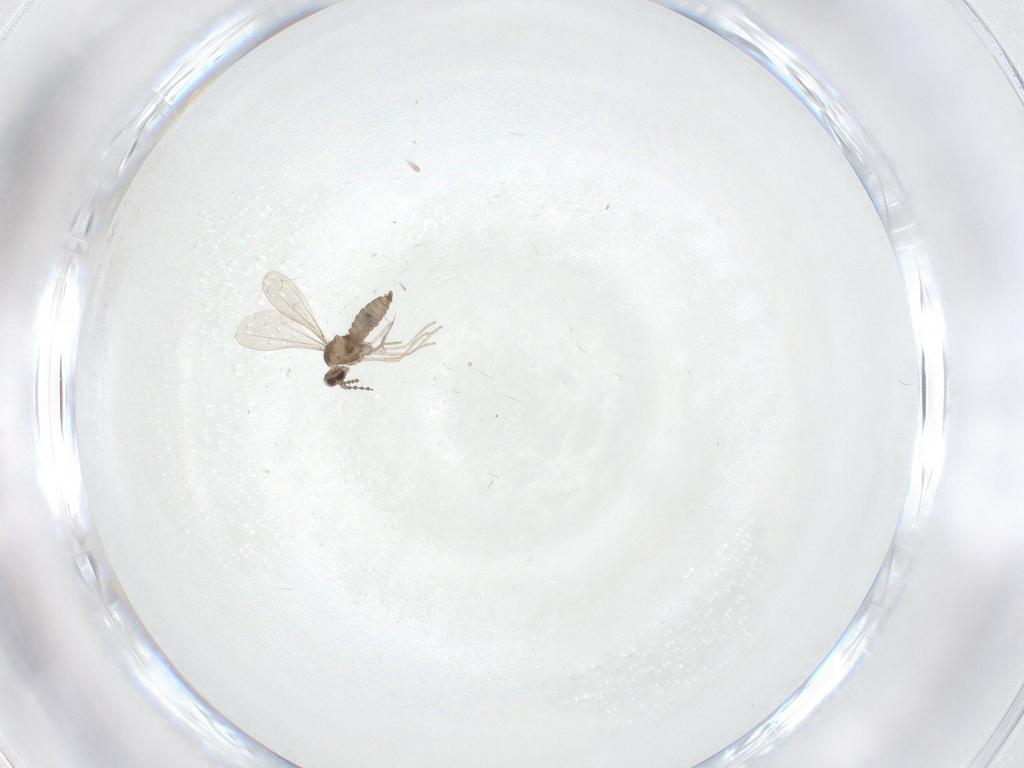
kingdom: Animalia
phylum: Arthropoda
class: Insecta
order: Diptera
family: Cecidomyiidae
